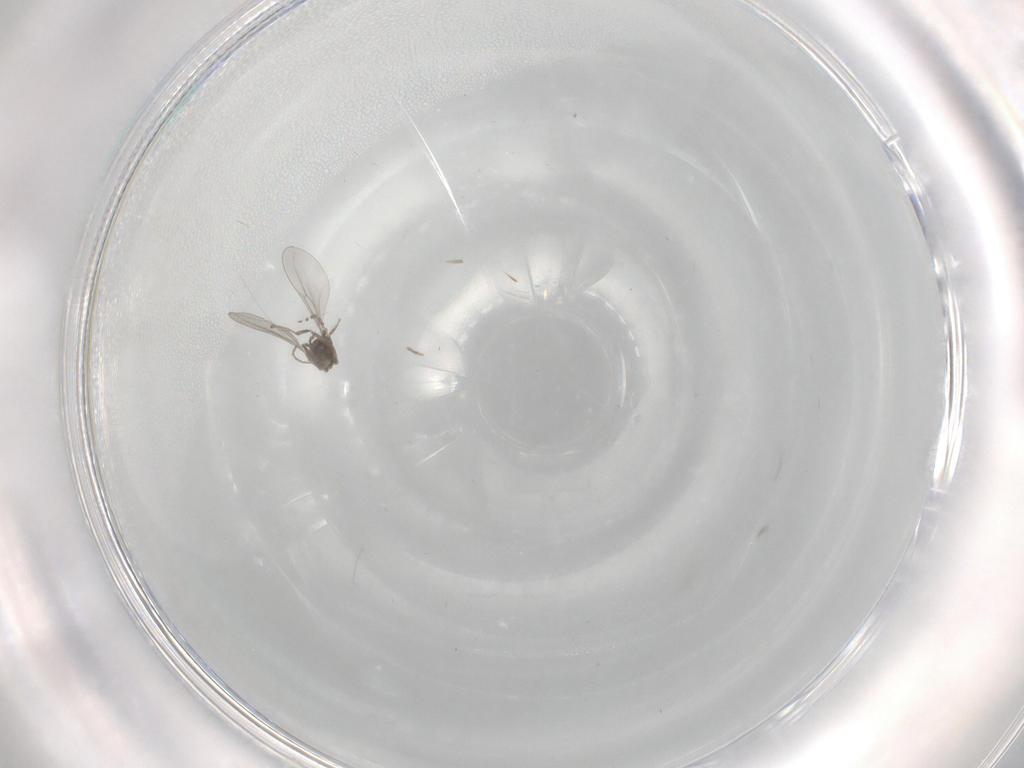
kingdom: Animalia
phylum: Arthropoda
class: Insecta
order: Diptera
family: Cecidomyiidae
